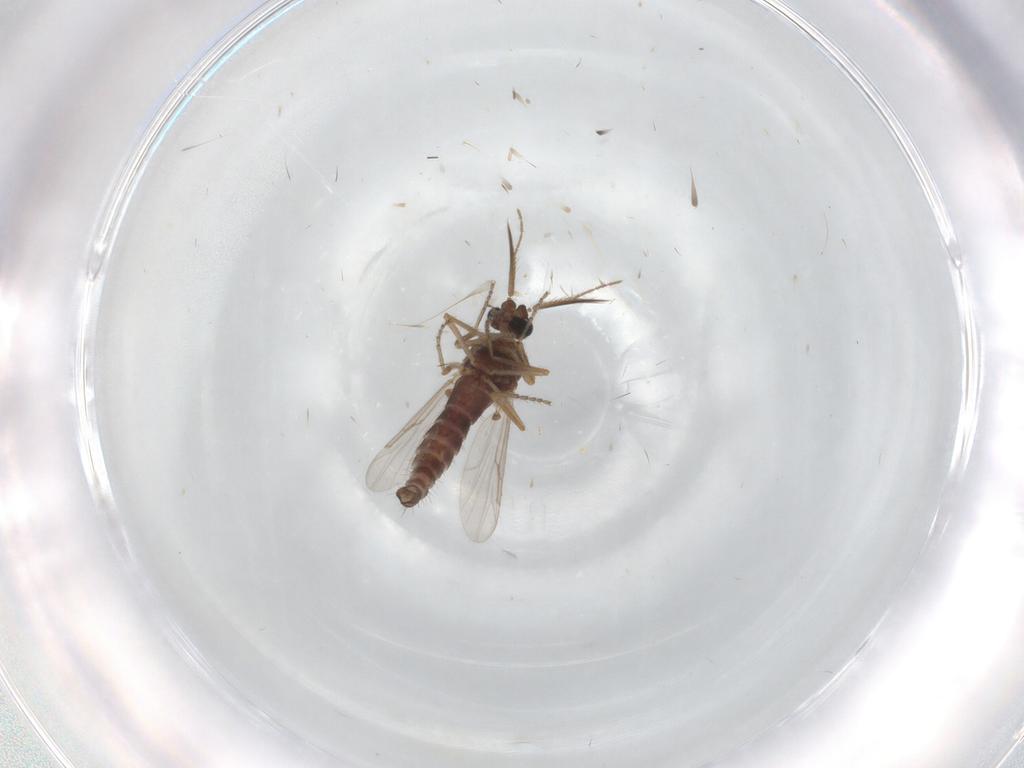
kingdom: Animalia
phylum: Arthropoda
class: Insecta
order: Diptera
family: Ceratopogonidae
